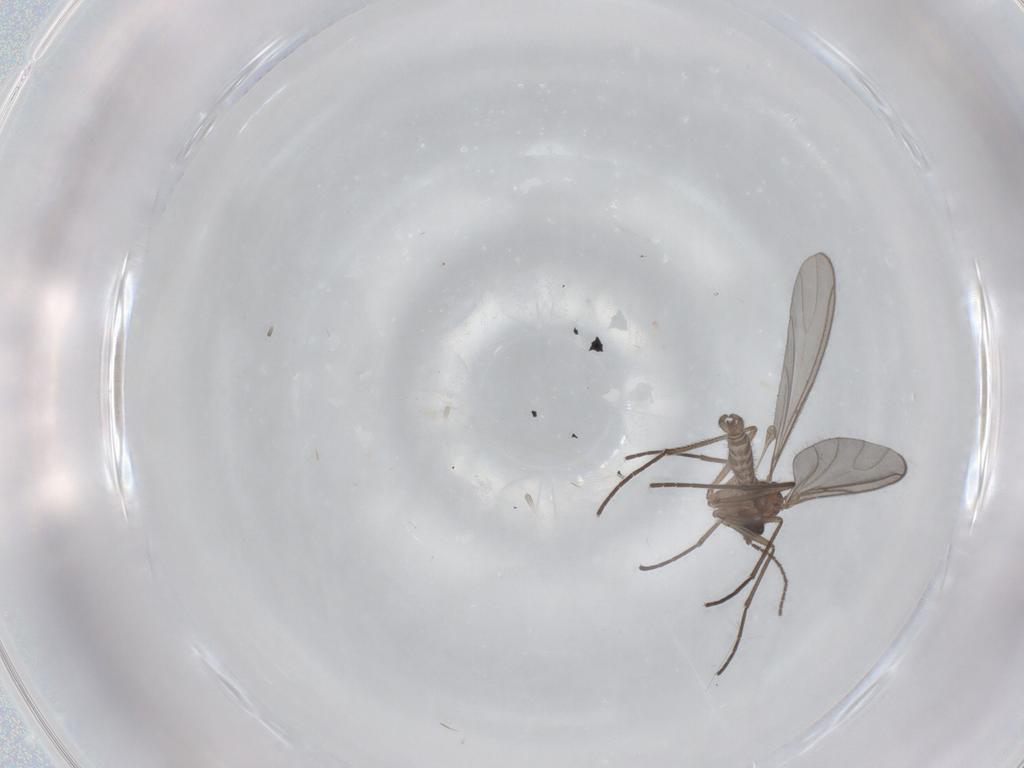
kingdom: Animalia
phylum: Arthropoda
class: Insecta
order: Diptera
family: Sciaridae
